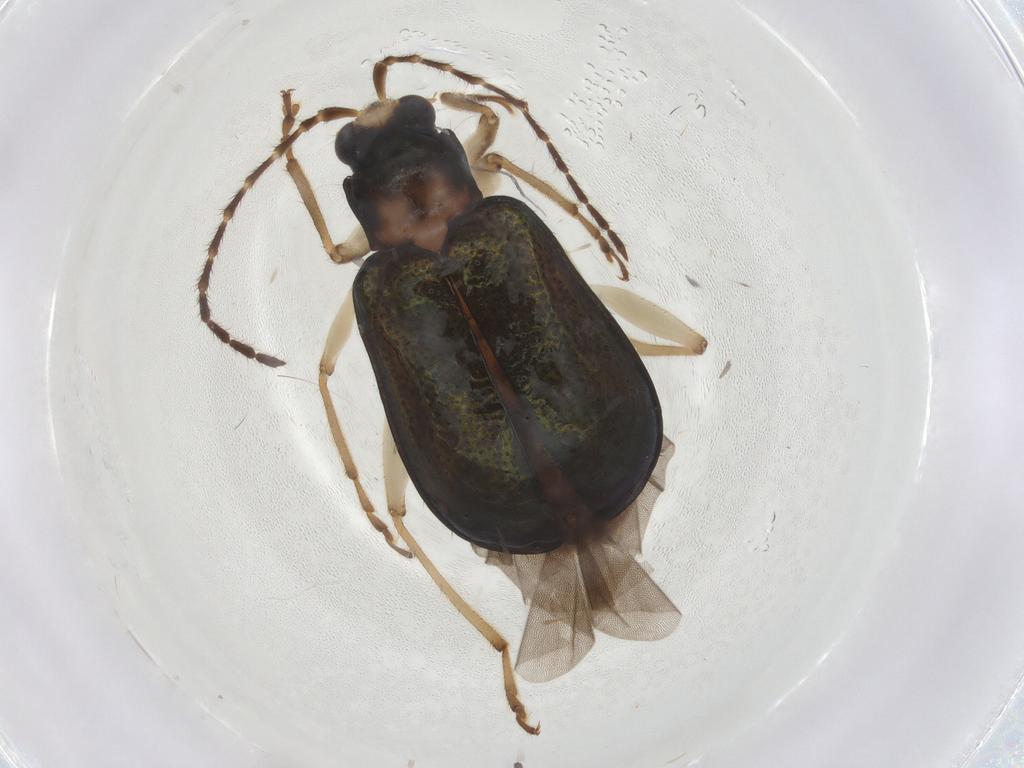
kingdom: Animalia
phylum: Arthropoda
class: Insecta
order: Coleoptera
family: Chrysomelidae
